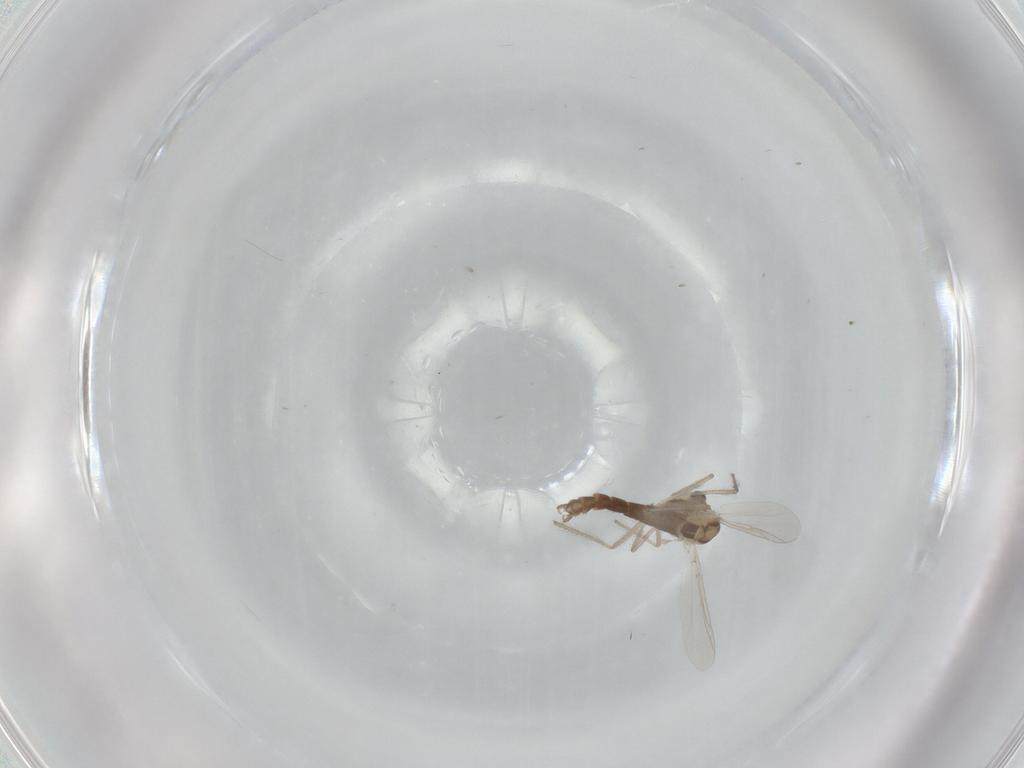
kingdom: Animalia
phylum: Arthropoda
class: Insecta
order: Diptera
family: Chironomidae
